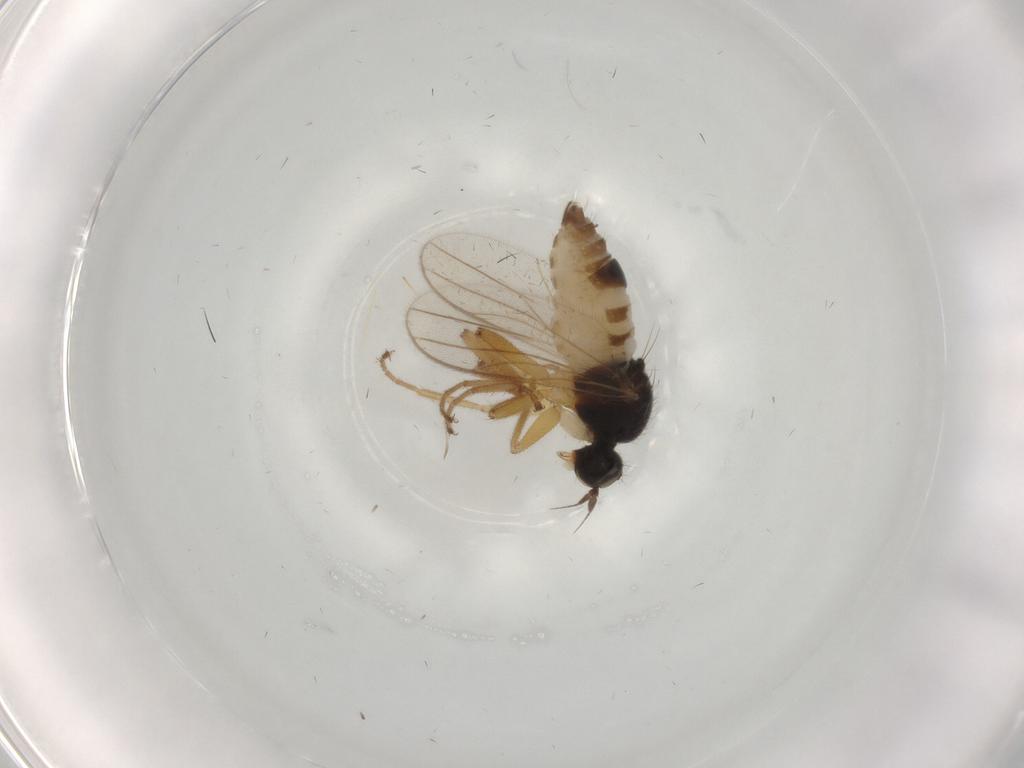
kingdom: Animalia
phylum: Arthropoda
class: Insecta
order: Diptera
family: Hybotidae
